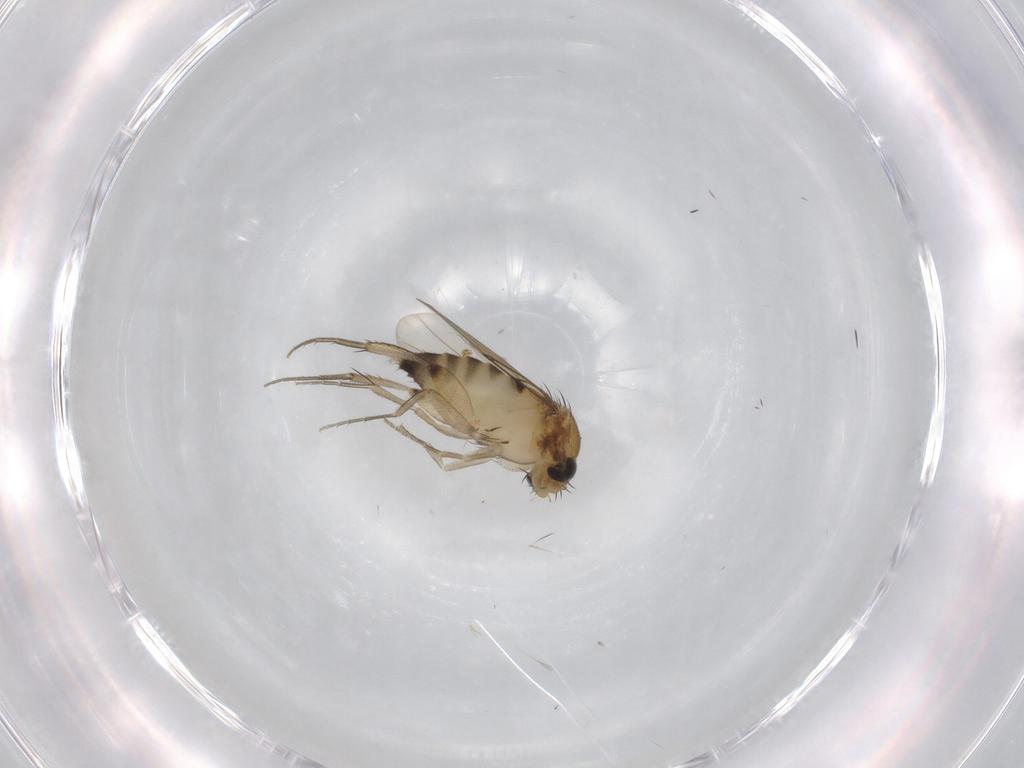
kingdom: Animalia
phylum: Arthropoda
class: Insecta
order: Diptera
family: Phoridae
